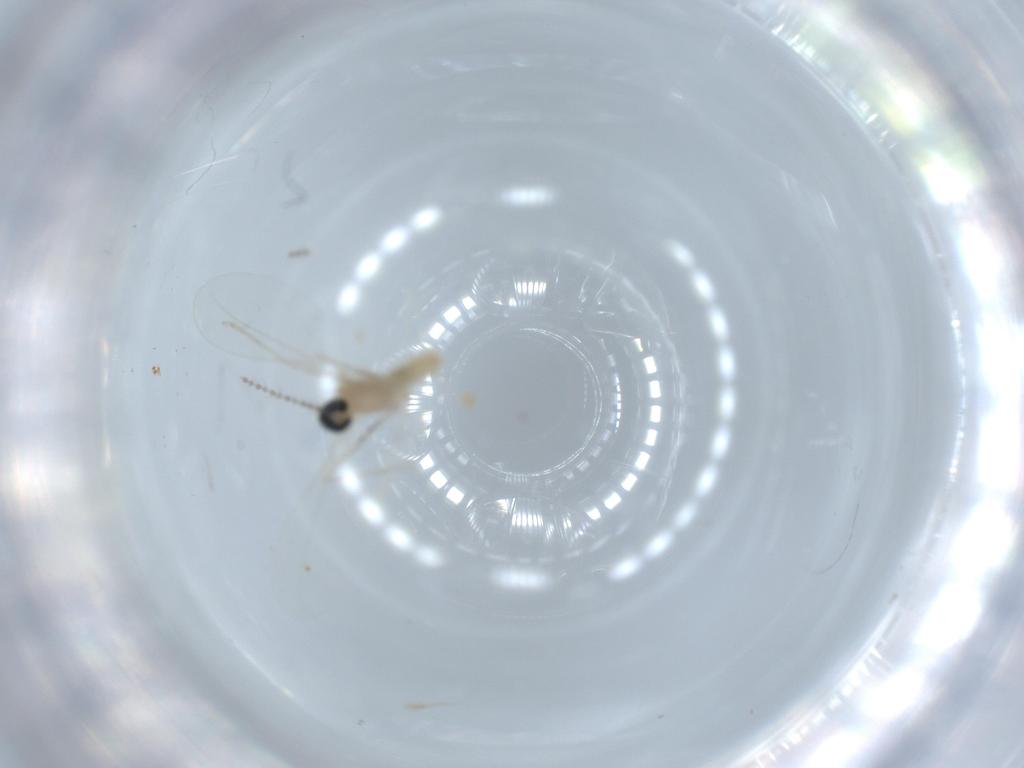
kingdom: Animalia
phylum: Arthropoda
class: Insecta
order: Diptera
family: Cecidomyiidae
